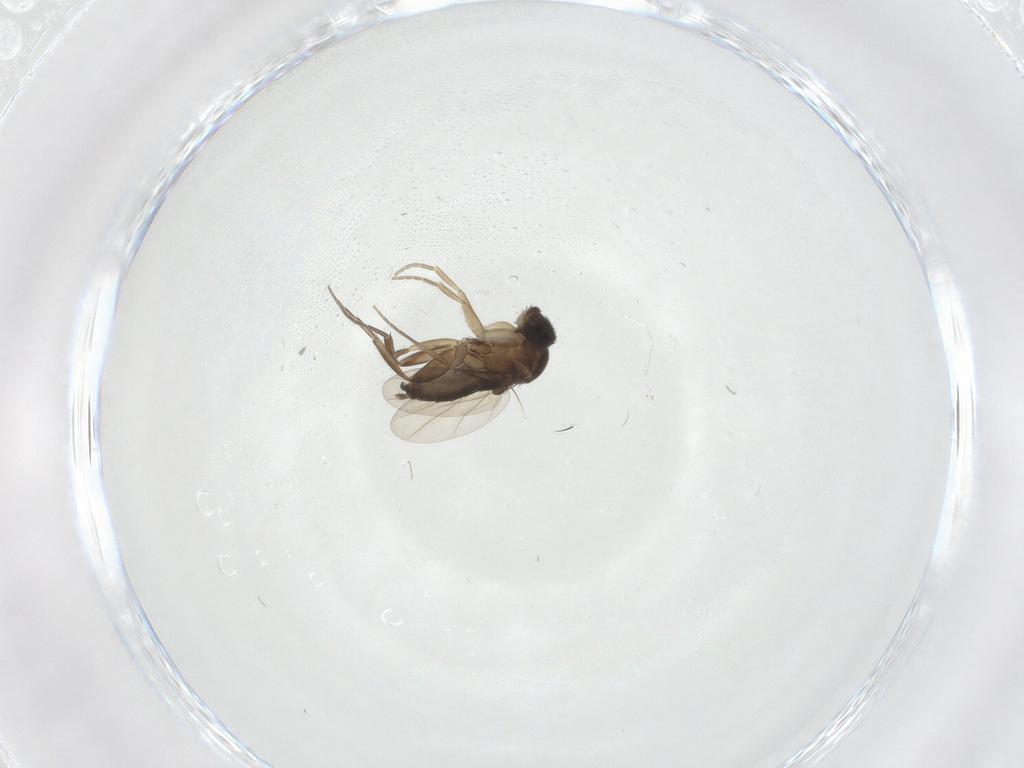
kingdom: Animalia
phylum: Arthropoda
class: Insecta
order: Diptera
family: Phoridae
